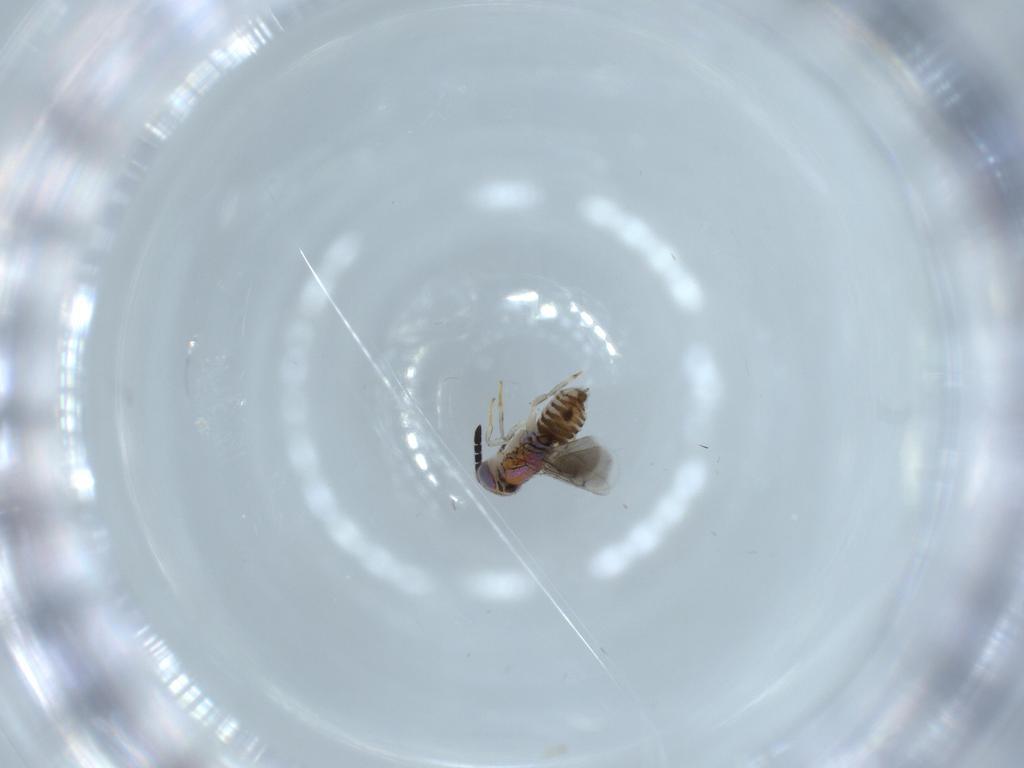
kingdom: Animalia
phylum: Arthropoda
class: Insecta
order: Hymenoptera
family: Aphelinidae
